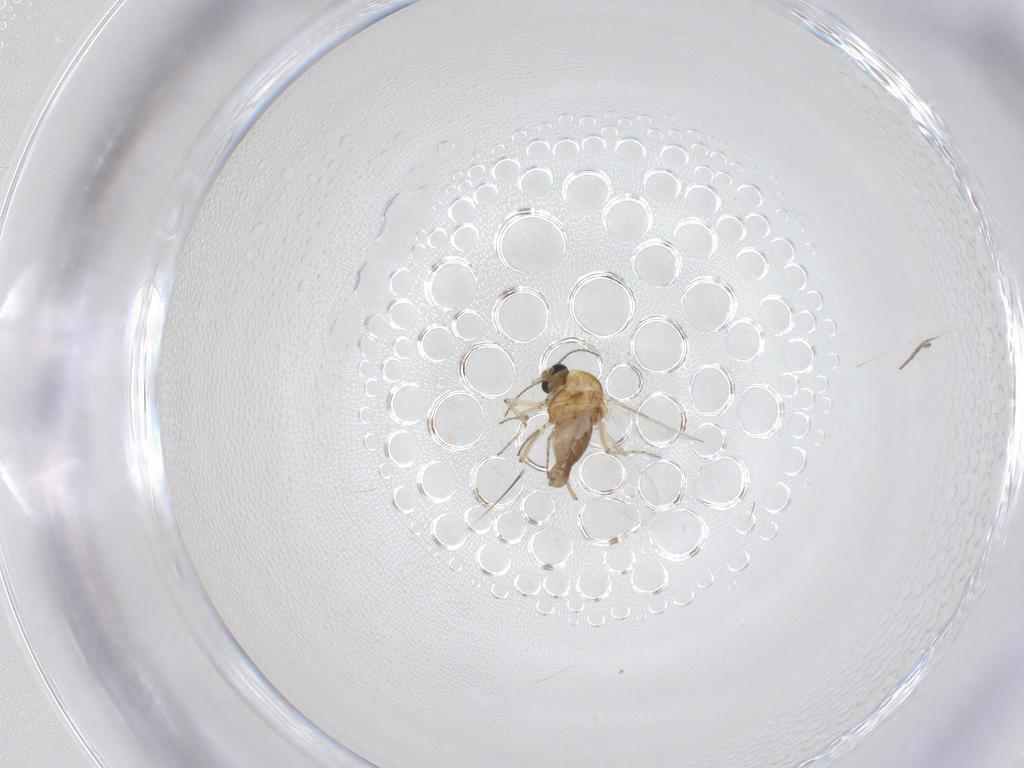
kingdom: Animalia
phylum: Arthropoda
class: Insecta
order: Diptera
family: Ceratopogonidae
